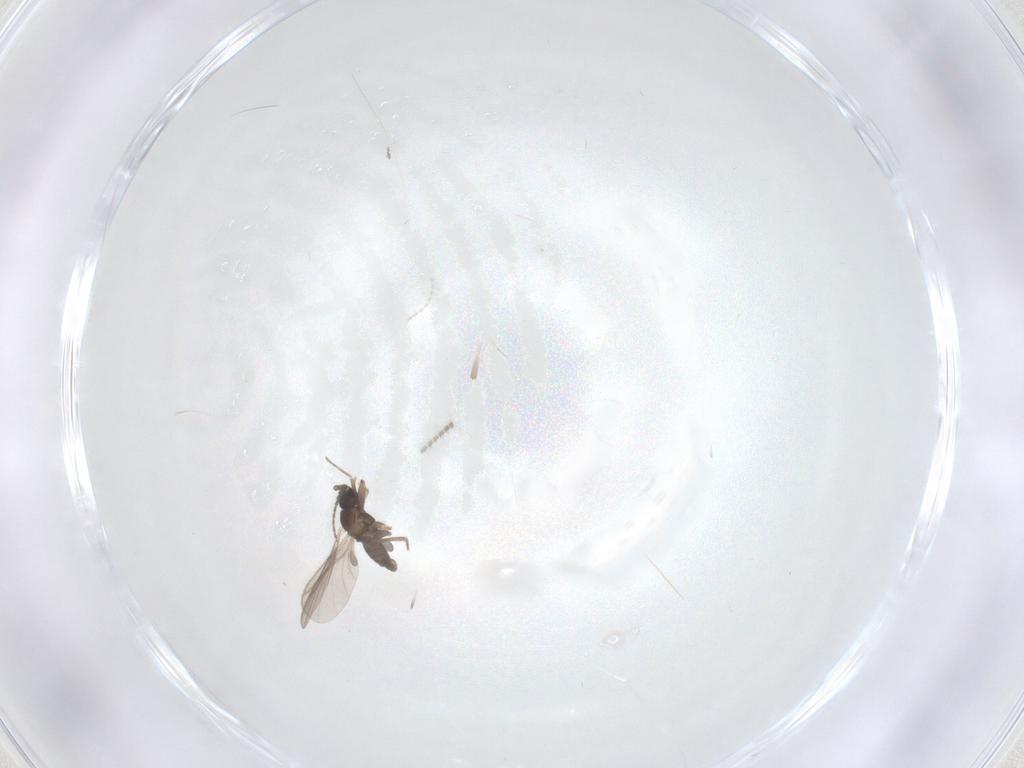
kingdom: Animalia
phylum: Arthropoda
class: Insecta
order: Diptera
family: Sciaridae
